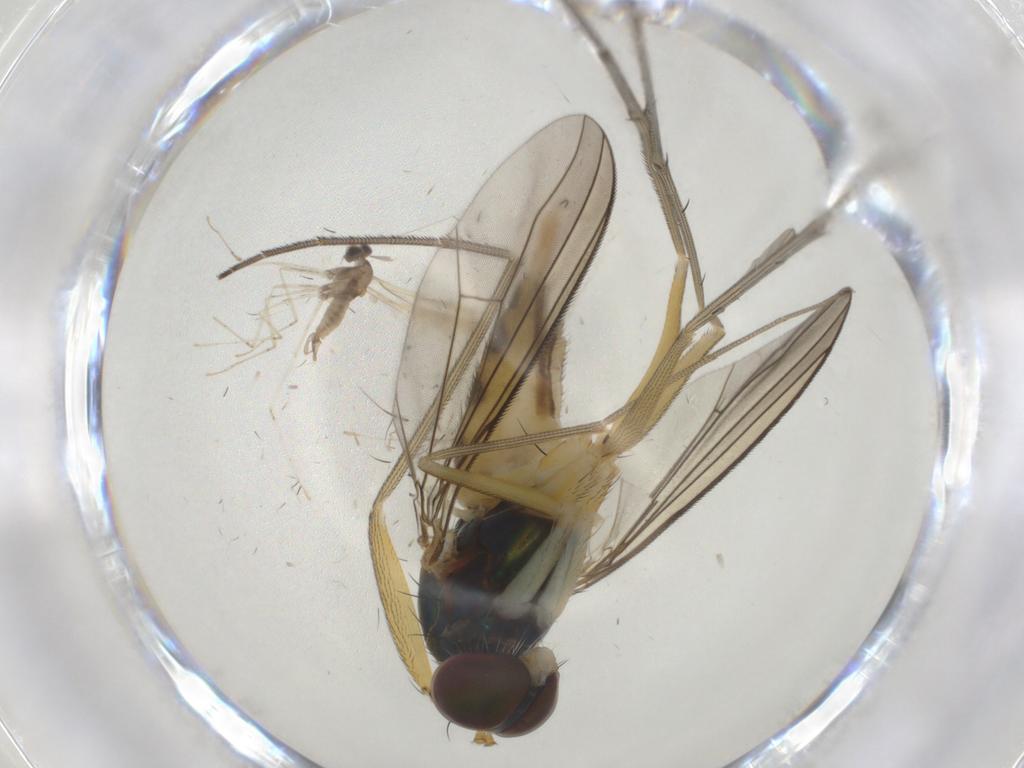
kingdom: Animalia
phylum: Arthropoda
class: Insecta
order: Diptera
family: Dolichopodidae
